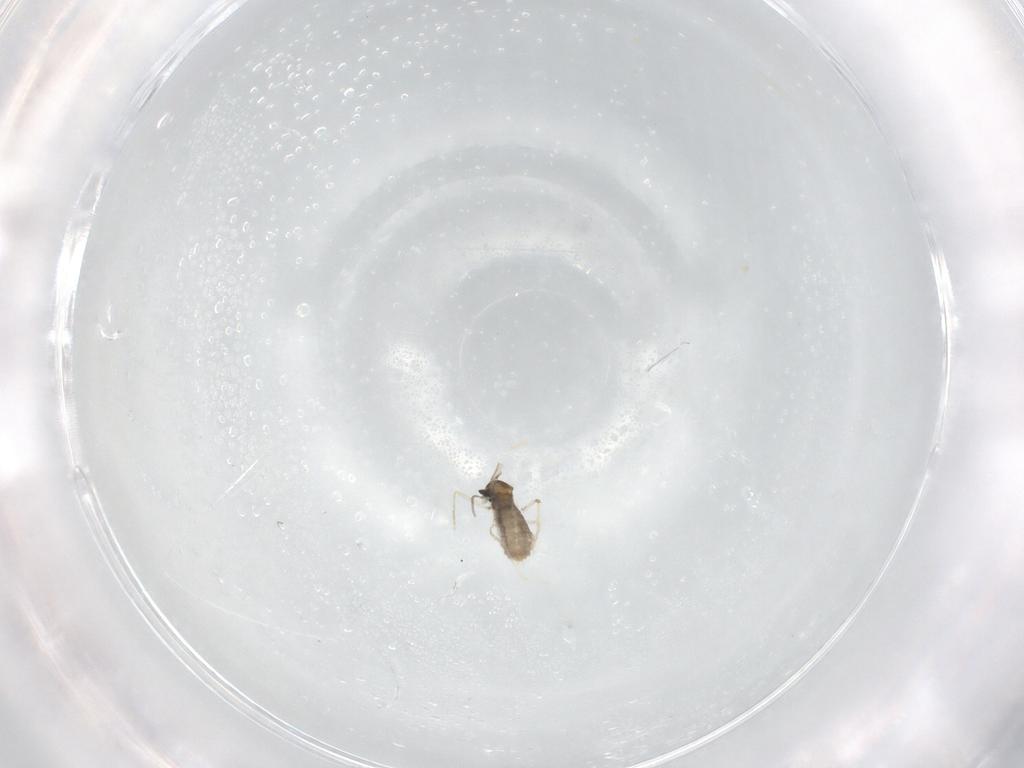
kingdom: Animalia
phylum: Arthropoda
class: Insecta
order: Diptera
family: Cecidomyiidae
